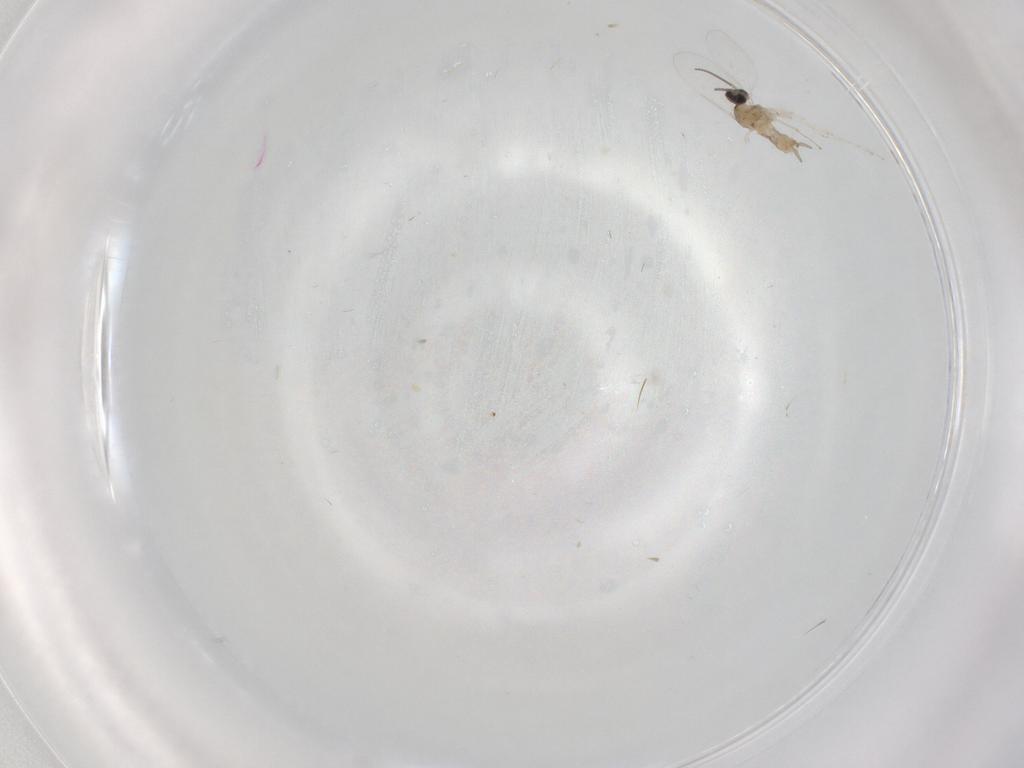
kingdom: Animalia
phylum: Arthropoda
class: Insecta
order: Diptera
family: Cecidomyiidae
